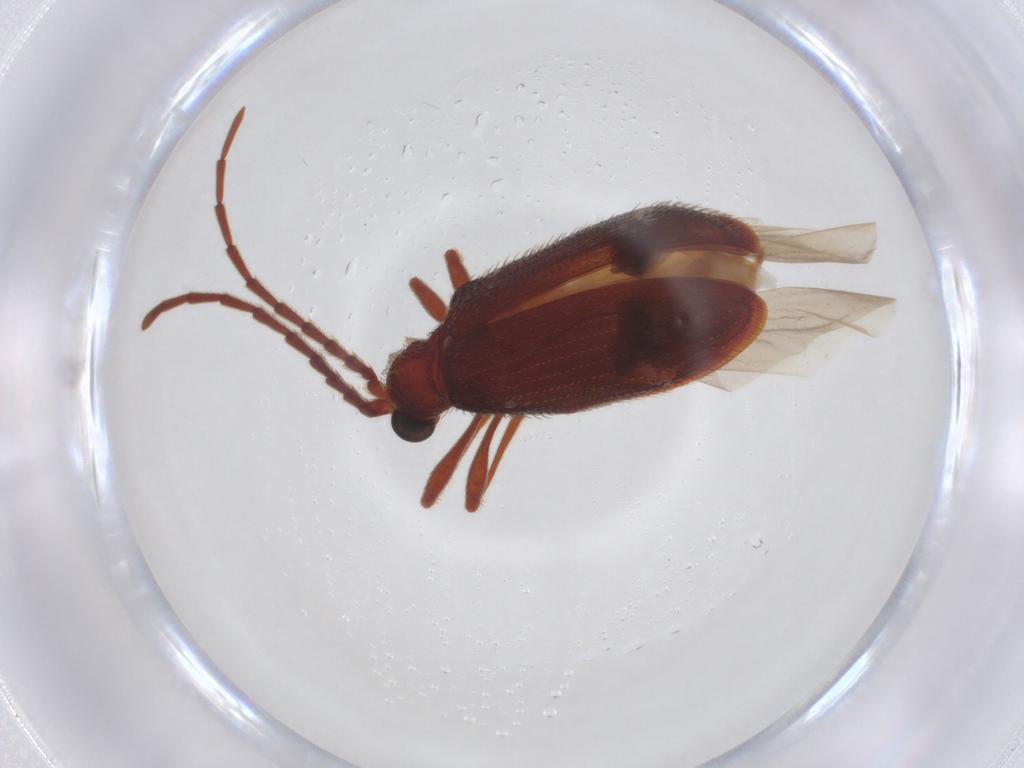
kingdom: Animalia
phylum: Arthropoda
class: Insecta
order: Coleoptera
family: Ptinidae
